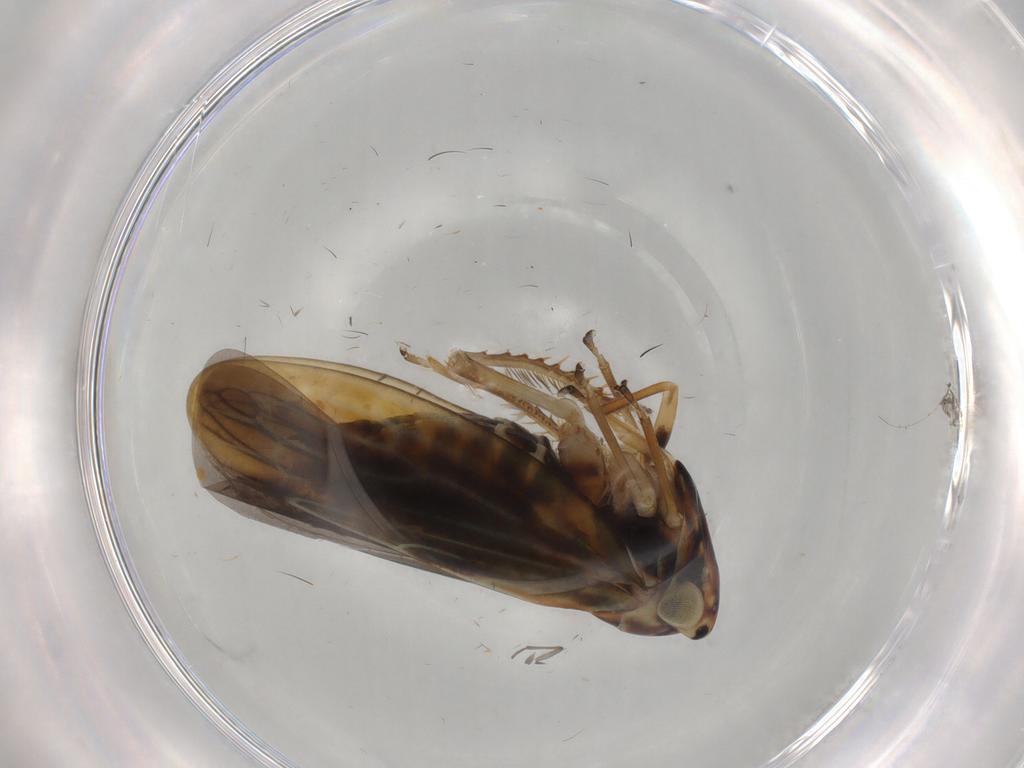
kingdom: Animalia
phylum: Arthropoda
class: Insecta
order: Hemiptera
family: Cicadellidae
